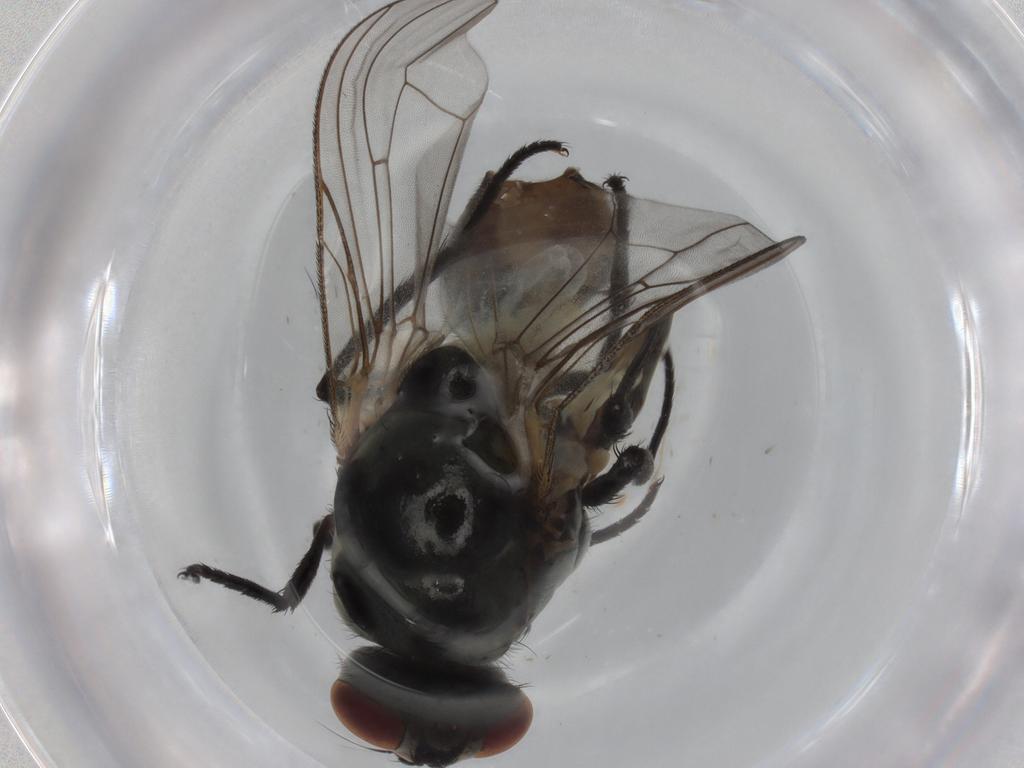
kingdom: Animalia
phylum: Arthropoda
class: Insecta
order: Diptera
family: Anthomyiidae
